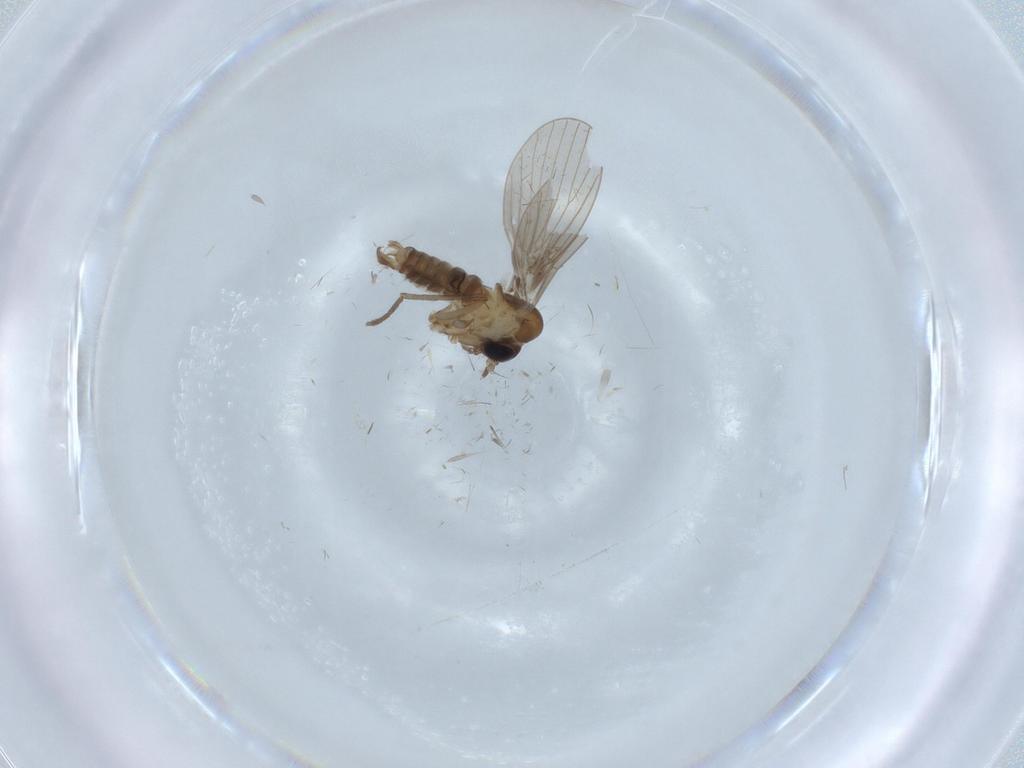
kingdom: Animalia
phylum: Arthropoda
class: Insecta
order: Diptera
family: Psychodidae
